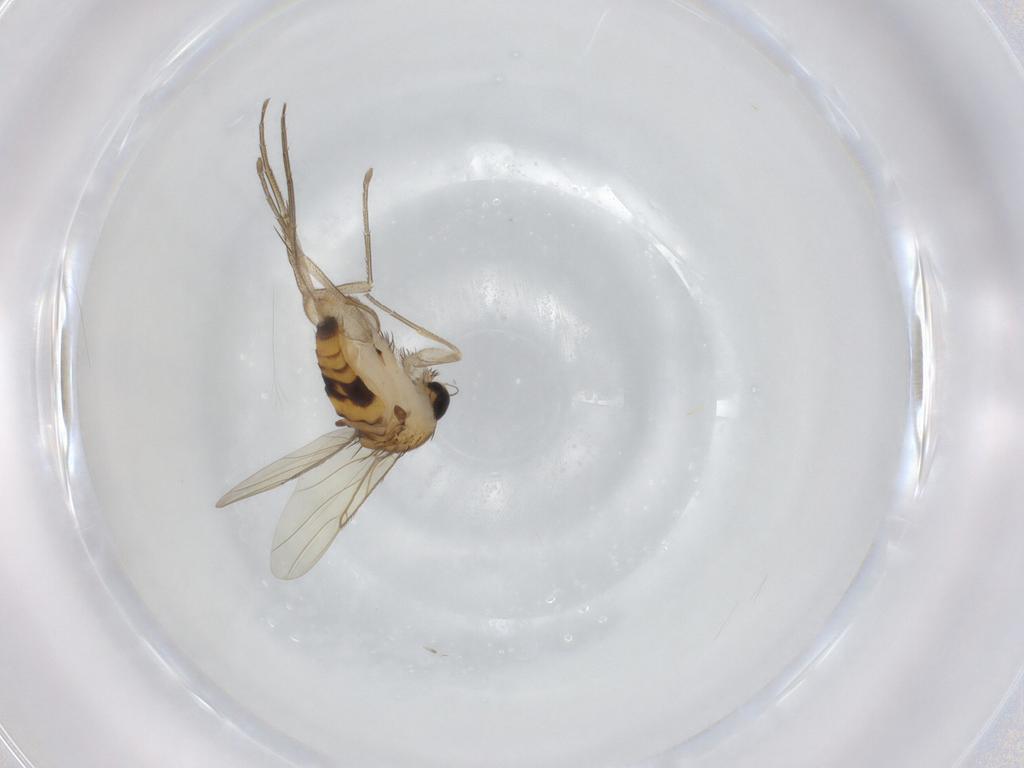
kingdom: Animalia
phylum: Arthropoda
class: Insecta
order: Diptera
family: Phoridae
